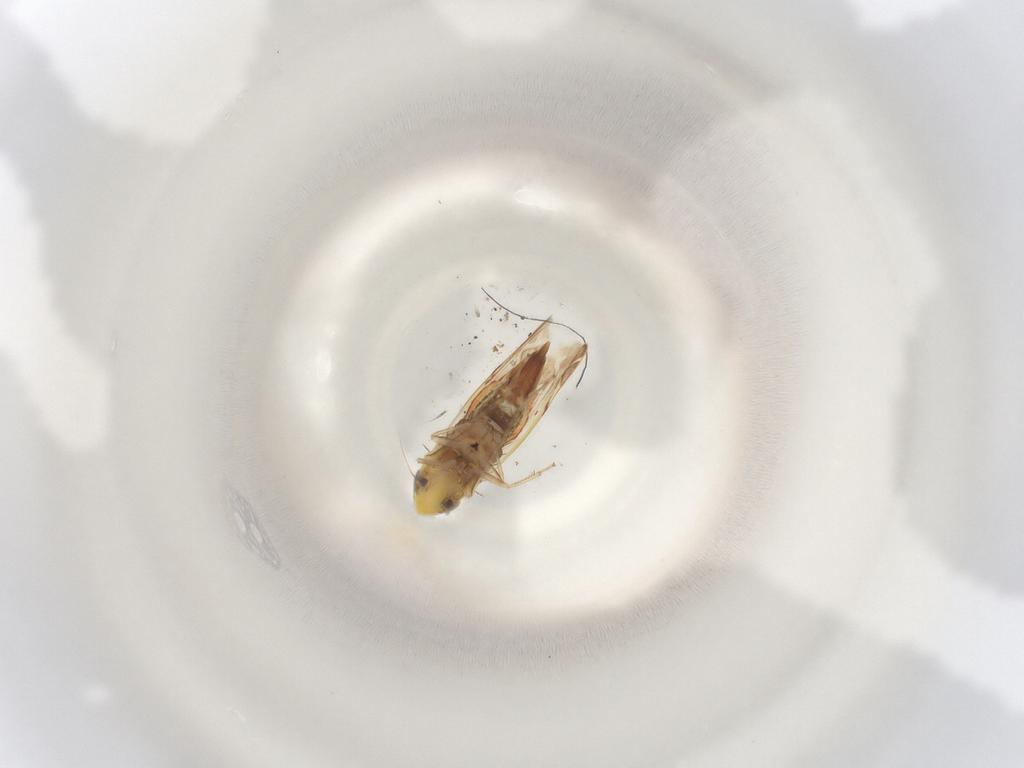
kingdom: Animalia
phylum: Arthropoda
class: Insecta
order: Hemiptera
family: Cicadellidae
